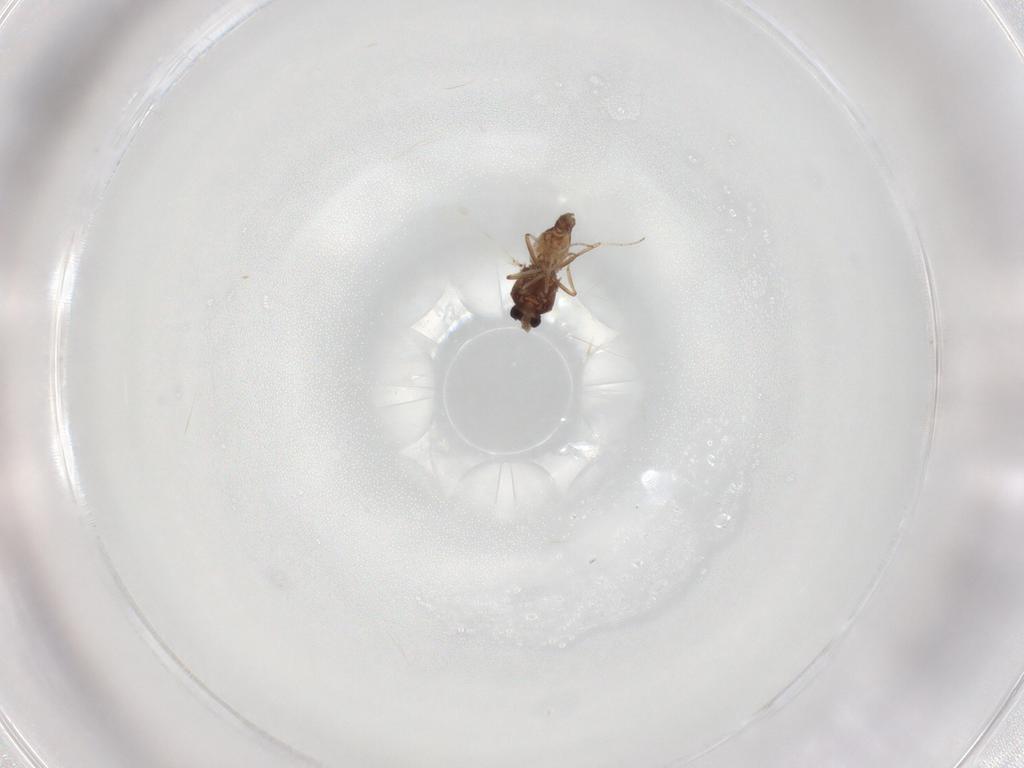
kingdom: Animalia
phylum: Arthropoda
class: Insecta
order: Diptera
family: Ceratopogonidae
